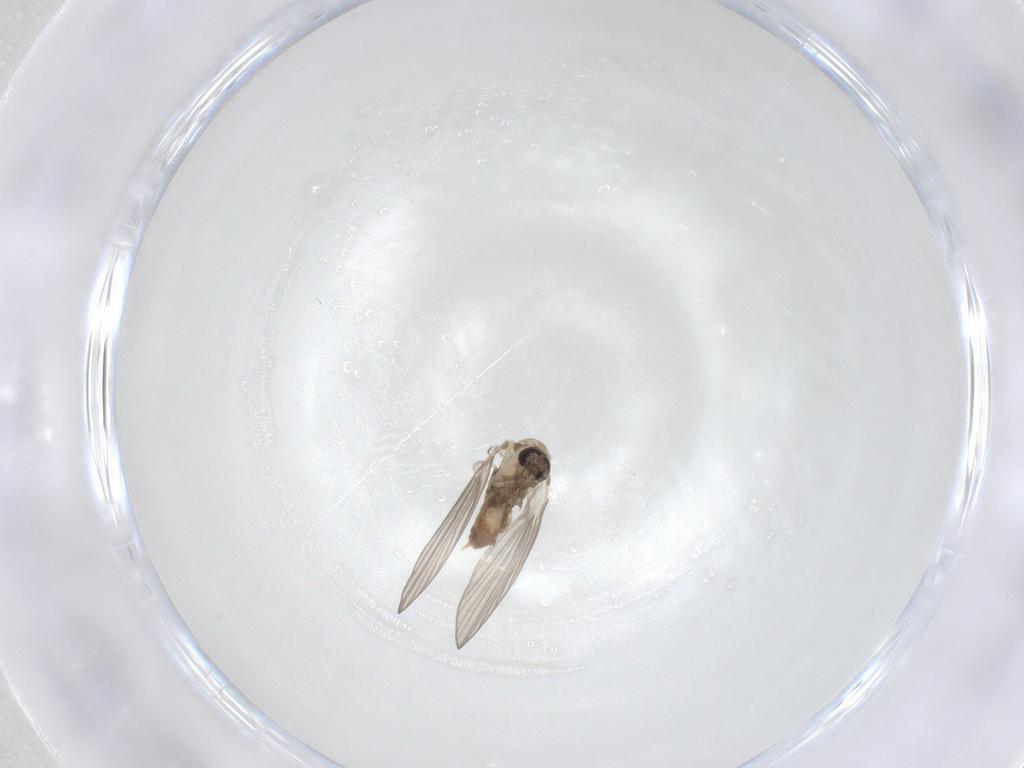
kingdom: Animalia
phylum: Arthropoda
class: Insecta
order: Diptera
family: Psychodidae
